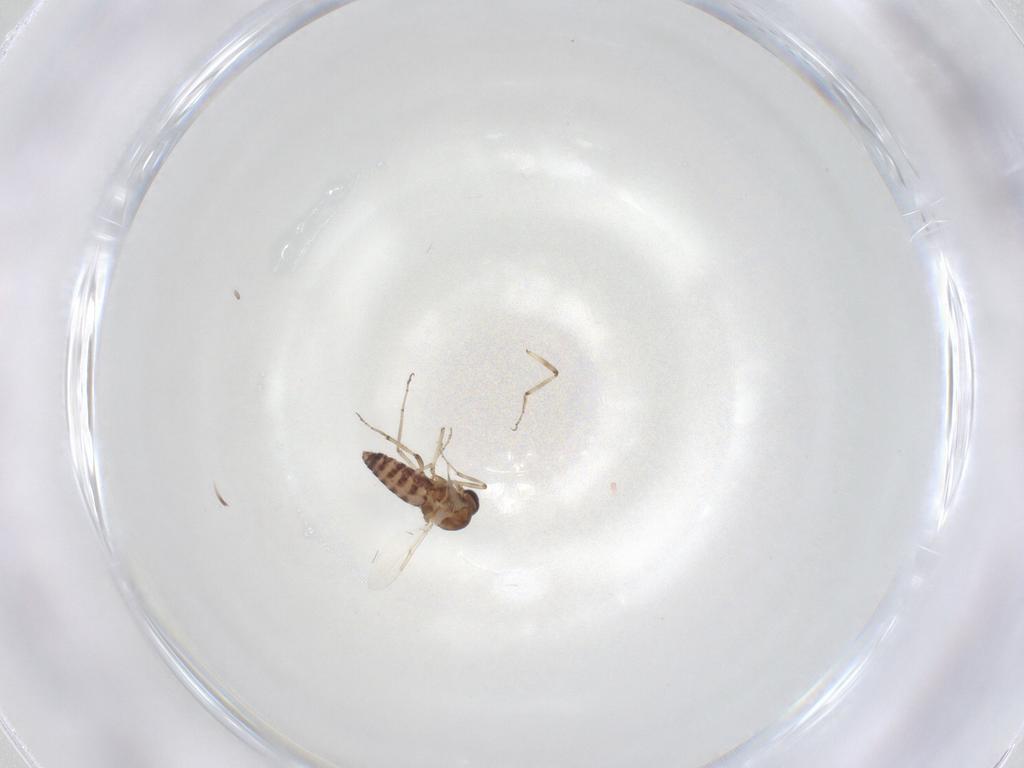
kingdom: Animalia
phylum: Arthropoda
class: Insecta
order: Diptera
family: Ceratopogonidae
